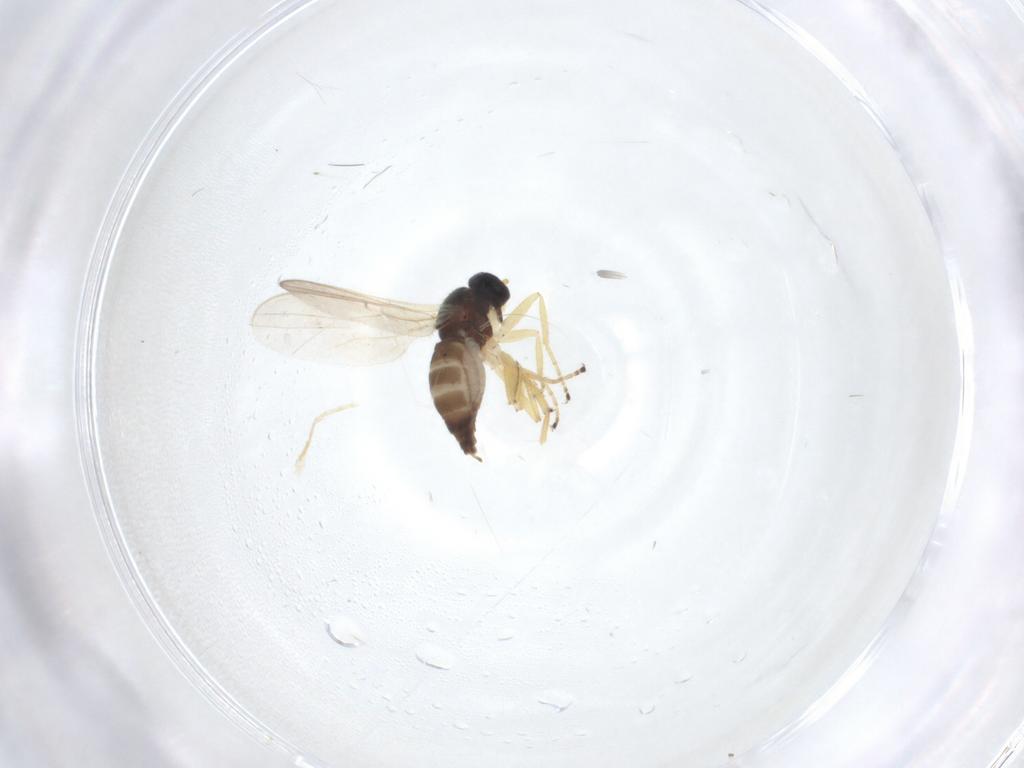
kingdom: Animalia
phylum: Arthropoda
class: Insecta
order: Diptera
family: Hybotidae
